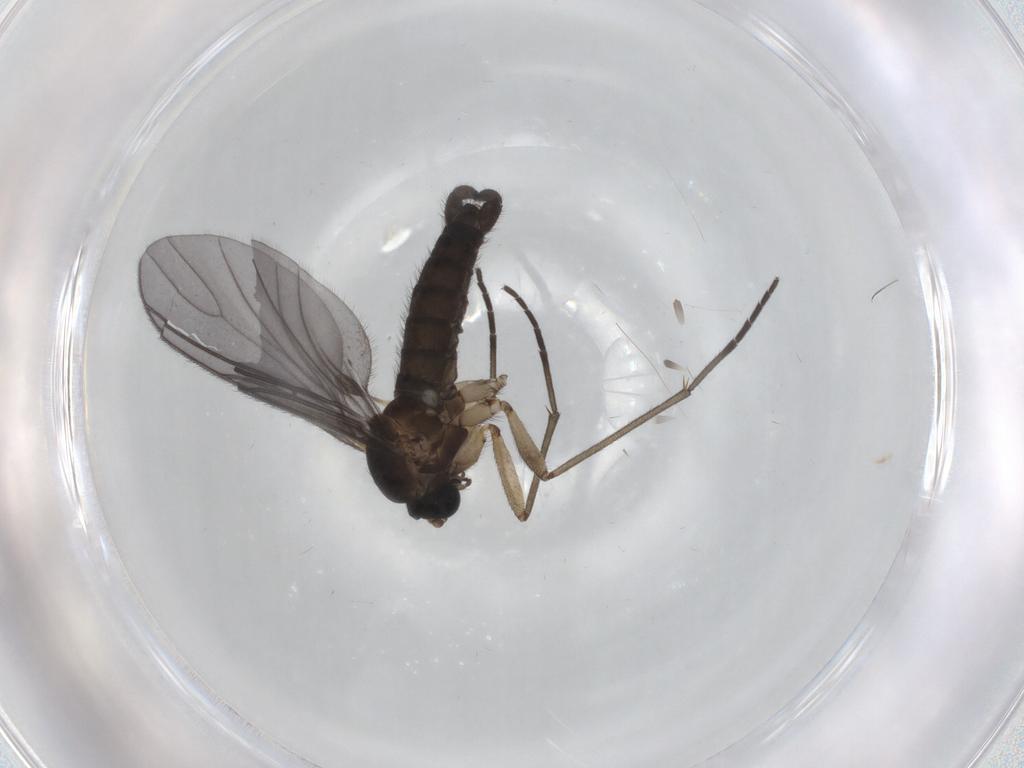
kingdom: Animalia
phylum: Arthropoda
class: Insecta
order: Diptera
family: Sciaridae
